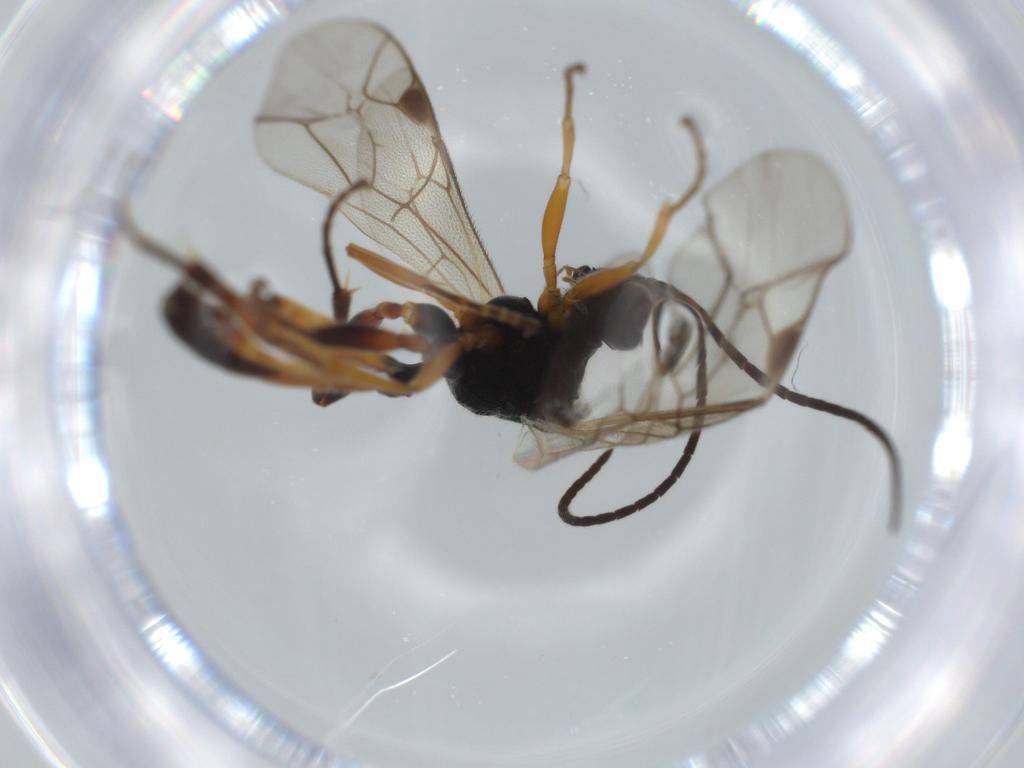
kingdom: Animalia
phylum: Arthropoda
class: Insecta
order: Hymenoptera
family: Ichneumonidae
